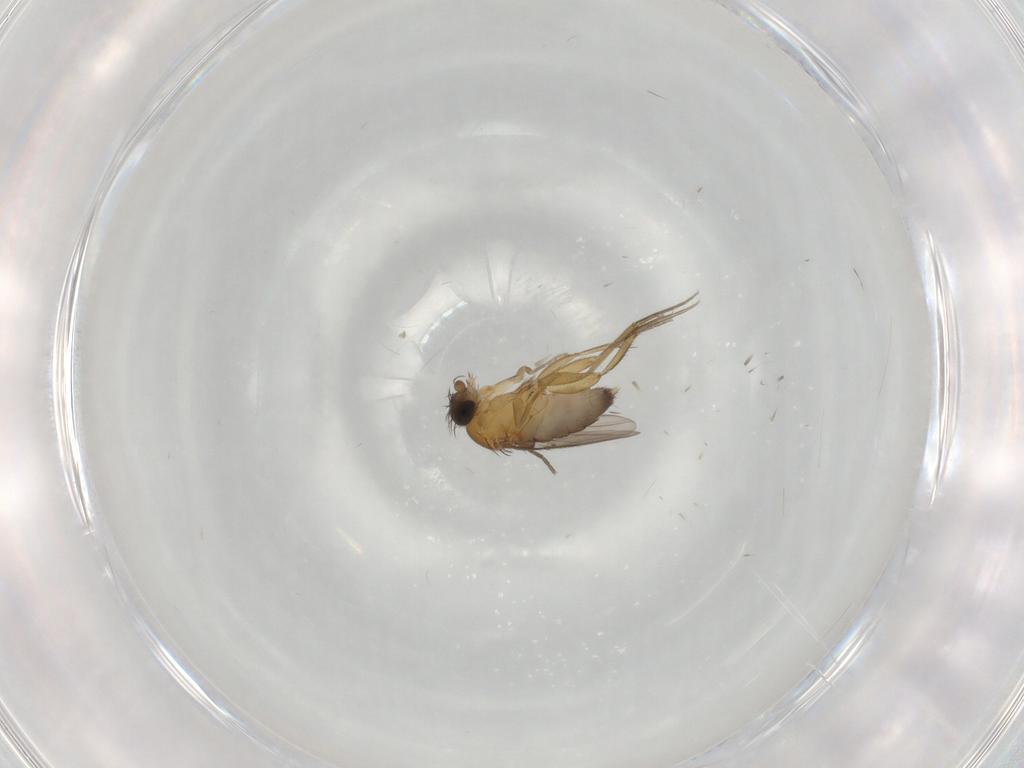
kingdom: Animalia
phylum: Arthropoda
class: Insecta
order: Diptera
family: Phoridae
